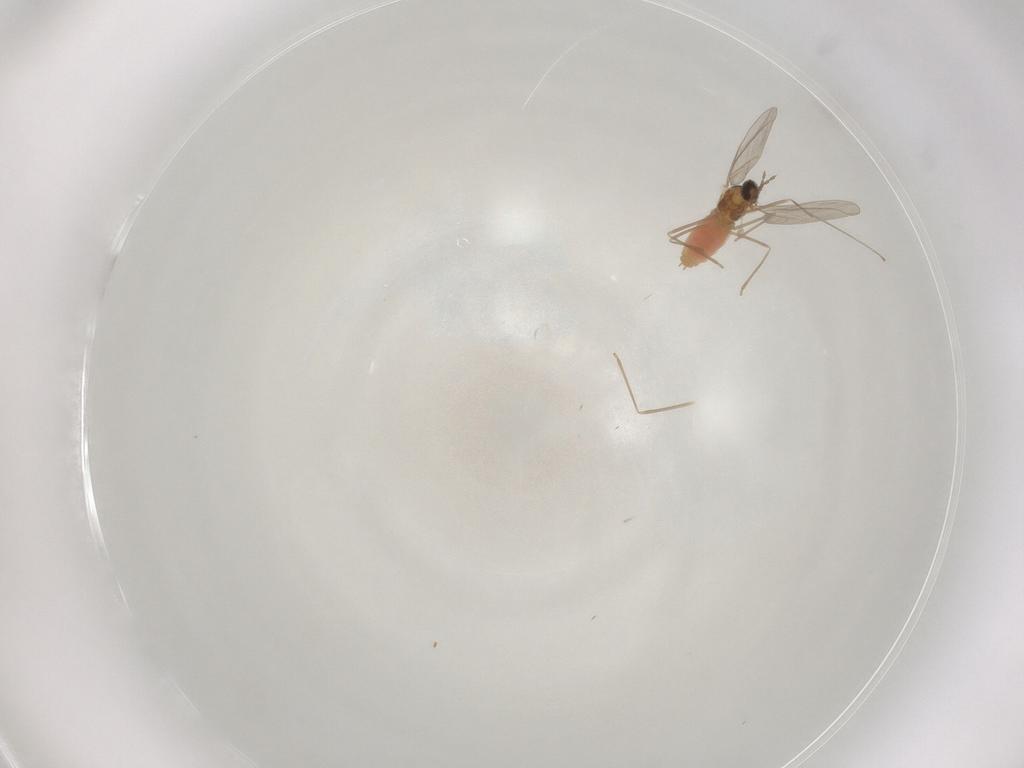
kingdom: Animalia
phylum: Arthropoda
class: Insecta
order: Diptera
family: Cecidomyiidae
